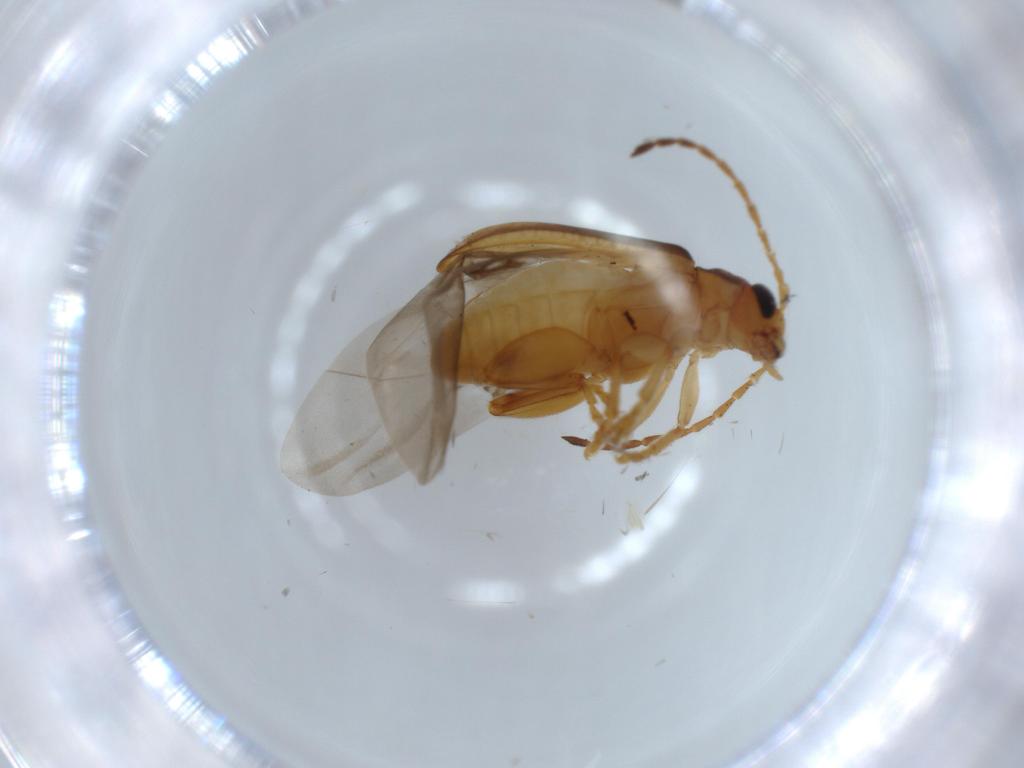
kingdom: Animalia
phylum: Arthropoda
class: Insecta
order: Coleoptera
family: Chrysomelidae
